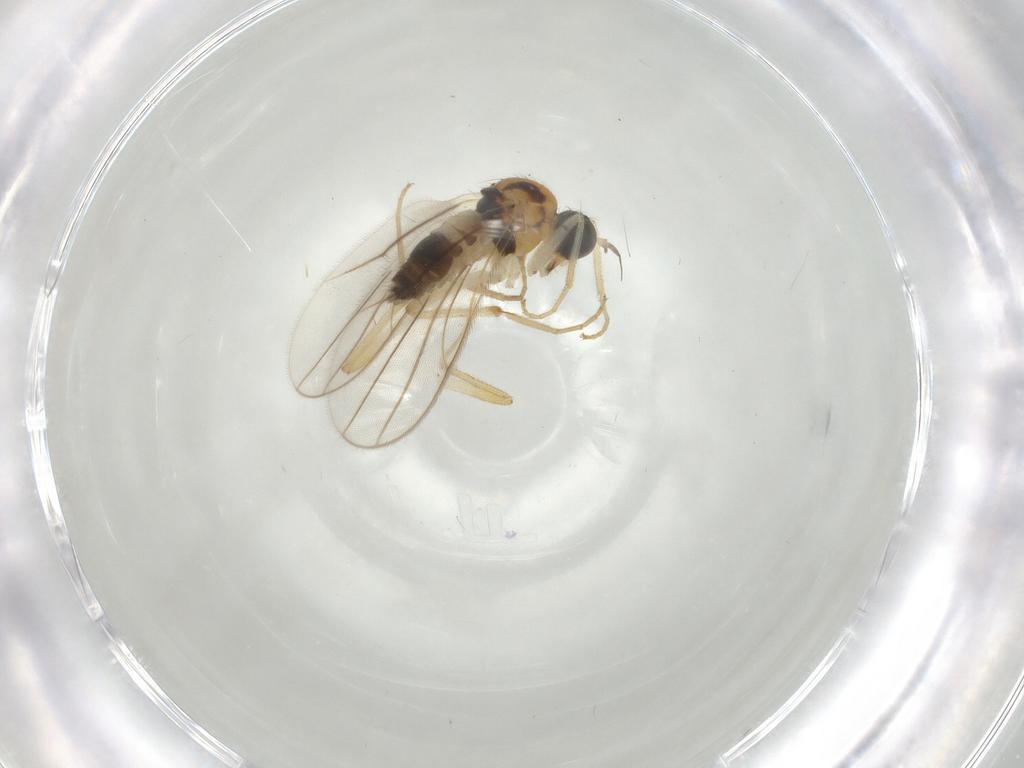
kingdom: Animalia
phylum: Arthropoda
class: Insecta
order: Diptera
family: Hybotidae
